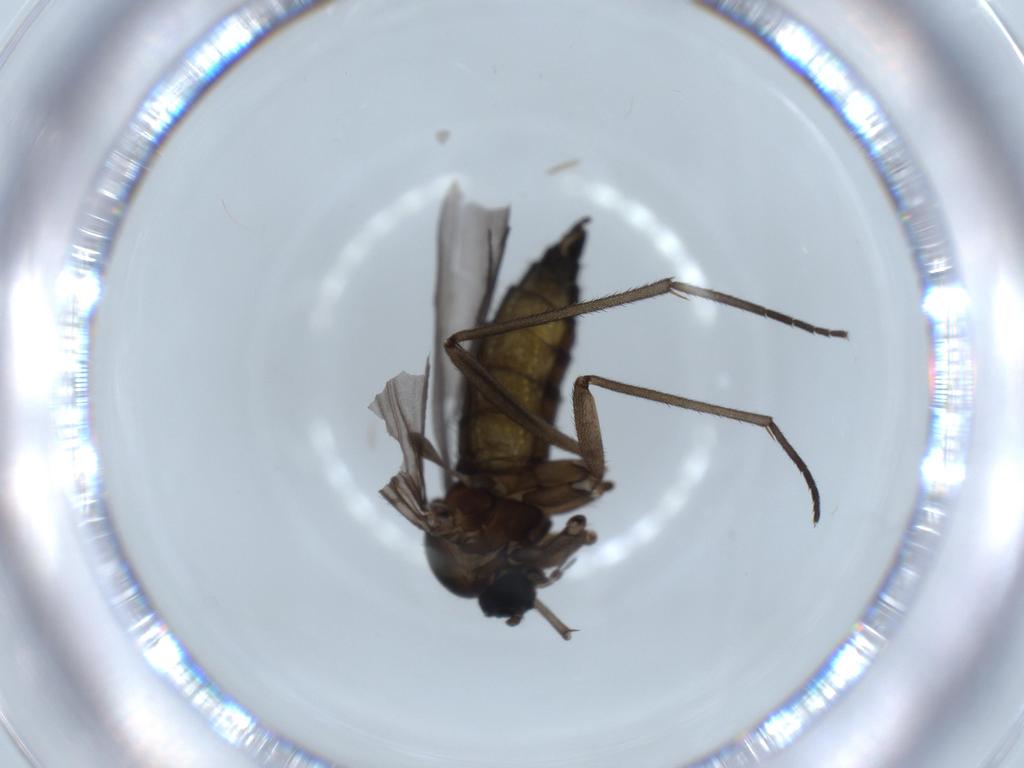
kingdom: Animalia
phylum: Arthropoda
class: Insecta
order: Diptera
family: Sciaridae
